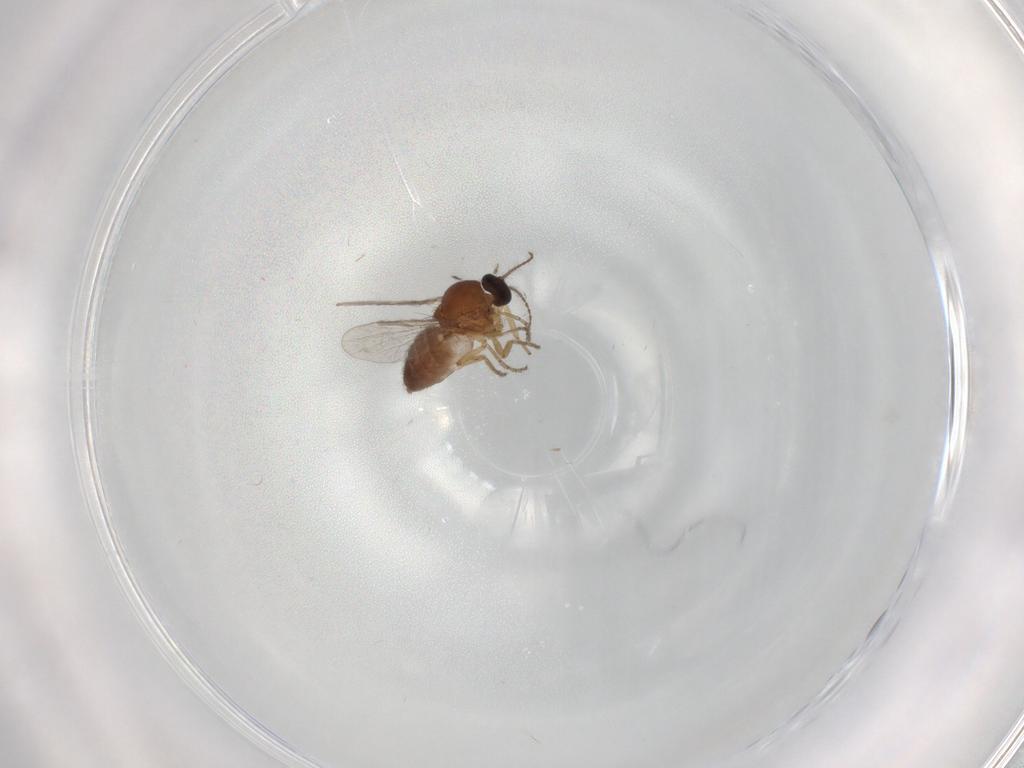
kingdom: Animalia
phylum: Arthropoda
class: Insecta
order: Diptera
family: Ceratopogonidae
